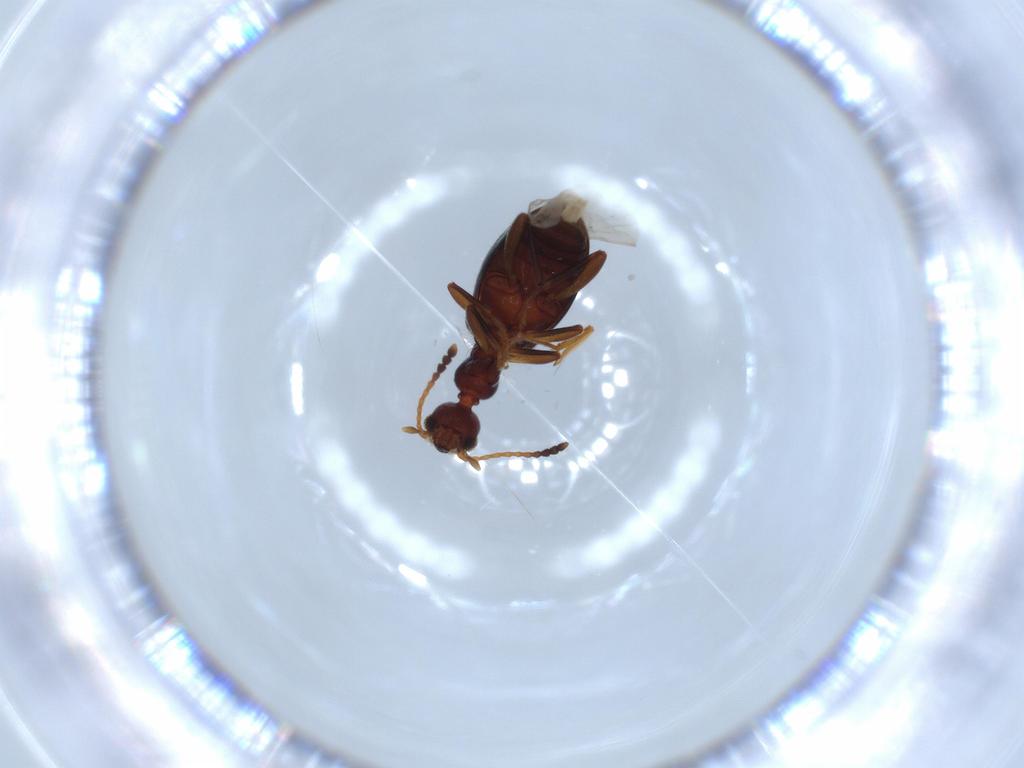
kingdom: Animalia
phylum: Arthropoda
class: Insecta
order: Coleoptera
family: Anthicidae
